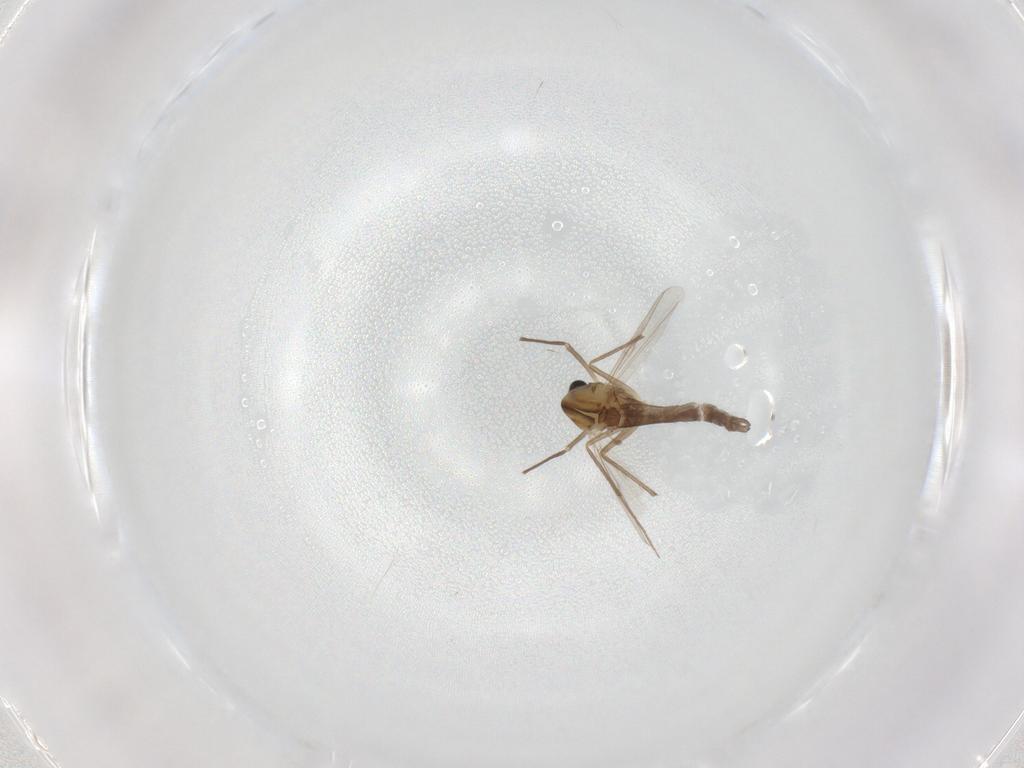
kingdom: Animalia
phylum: Arthropoda
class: Insecta
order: Diptera
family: Chironomidae
